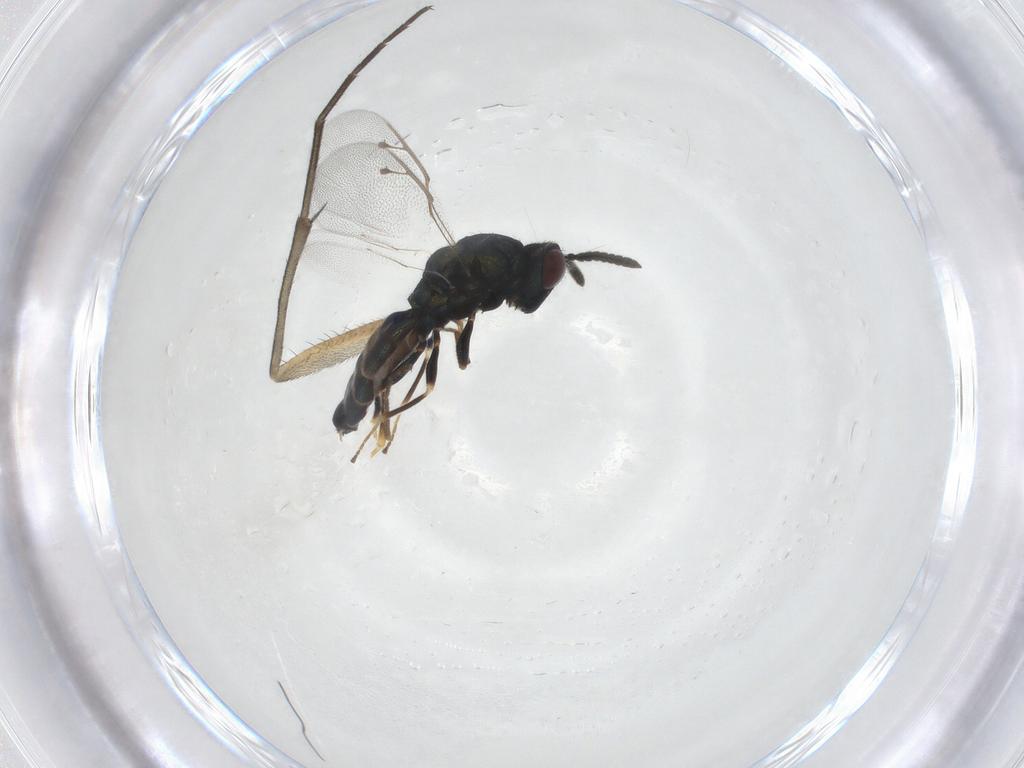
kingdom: Animalia
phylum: Arthropoda
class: Insecta
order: Hymenoptera
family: Pteromalidae
